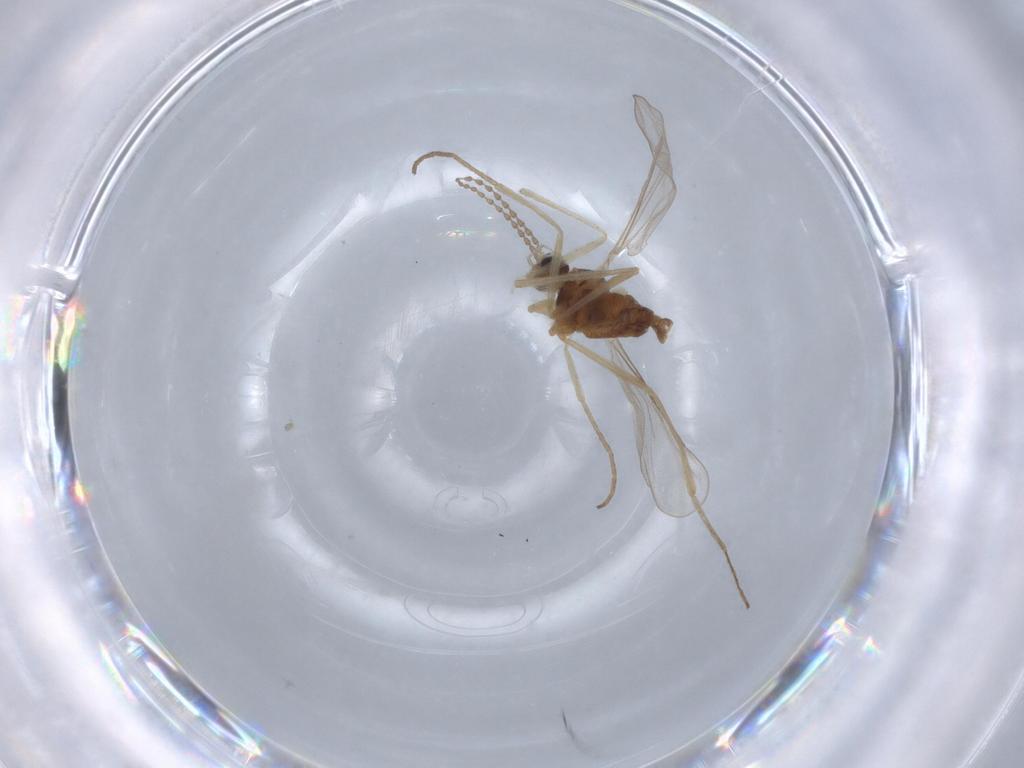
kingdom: Animalia
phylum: Arthropoda
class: Insecta
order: Diptera
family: Cecidomyiidae
